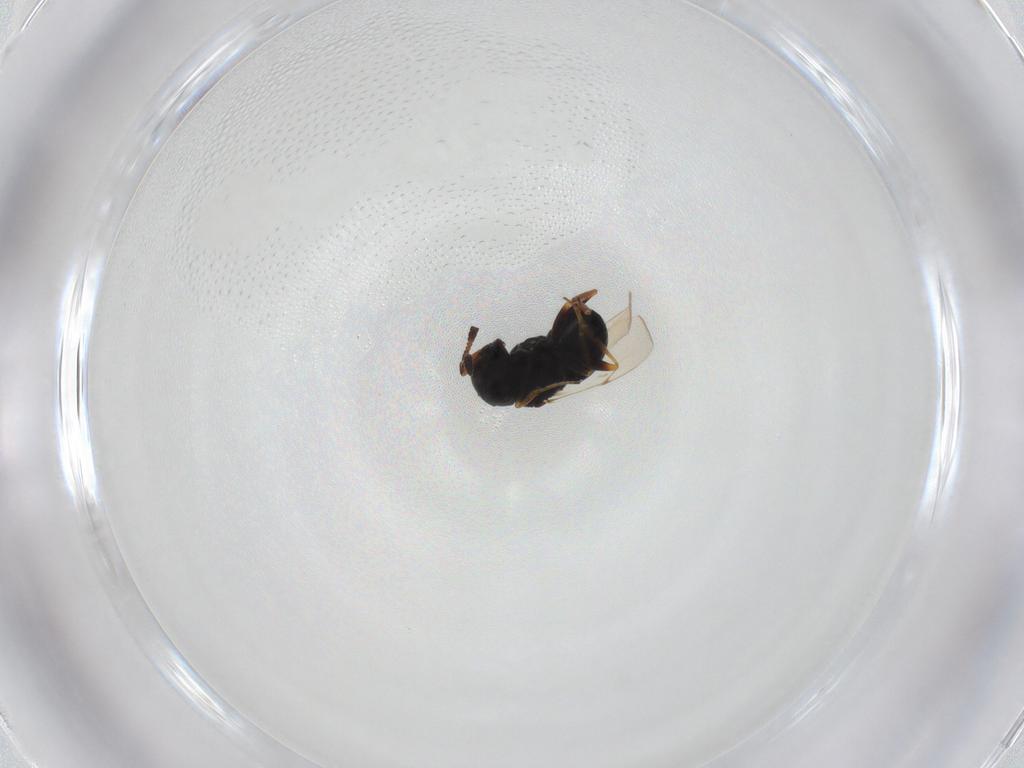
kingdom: Animalia
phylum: Arthropoda
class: Insecta
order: Hymenoptera
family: Scelionidae
